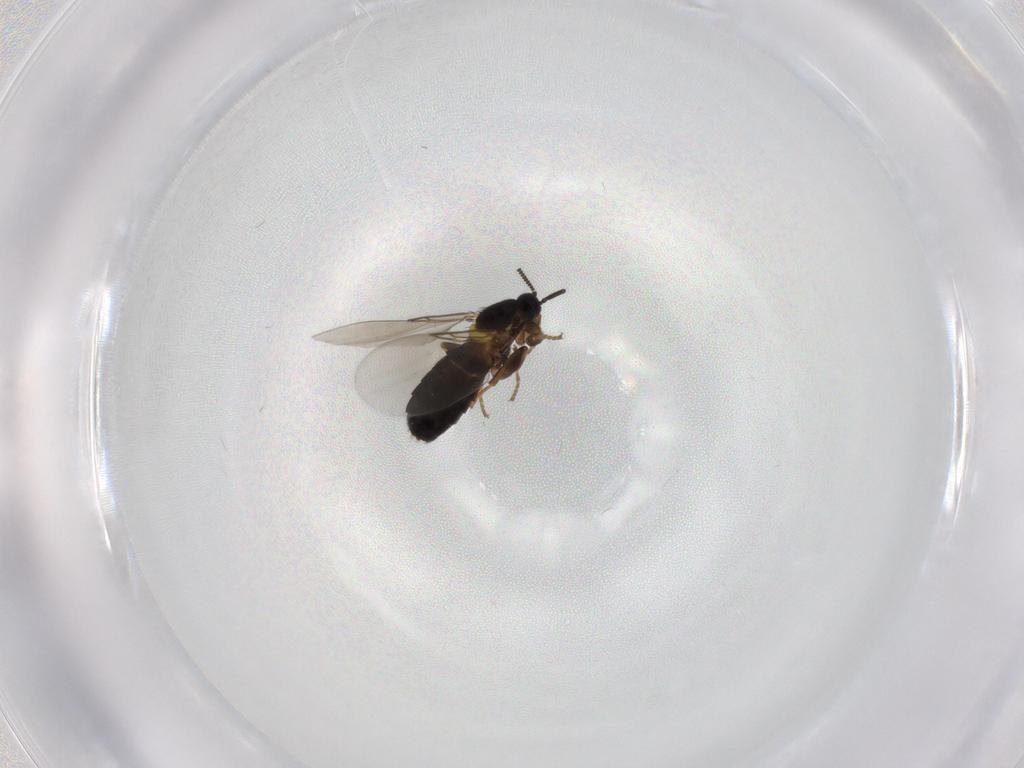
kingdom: Animalia
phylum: Arthropoda
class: Insecta
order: Diptera
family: Scatopsidae
